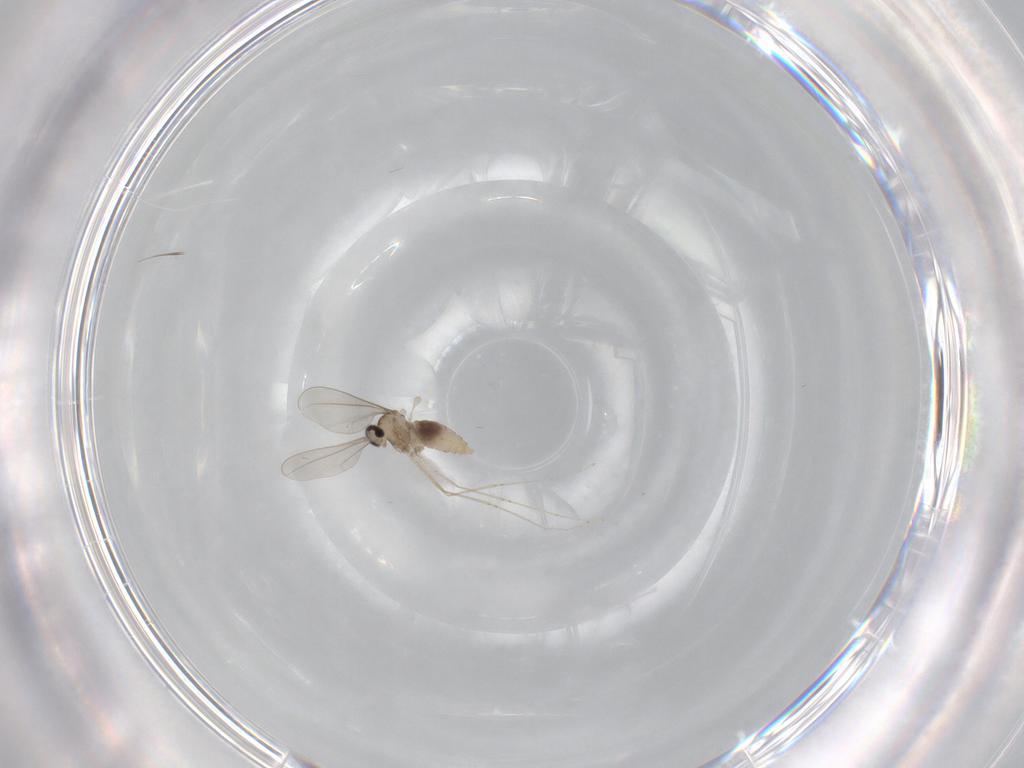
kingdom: Animalia
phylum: Arthropoda
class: Insecta
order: Diptera
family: Cecidomyiidae
